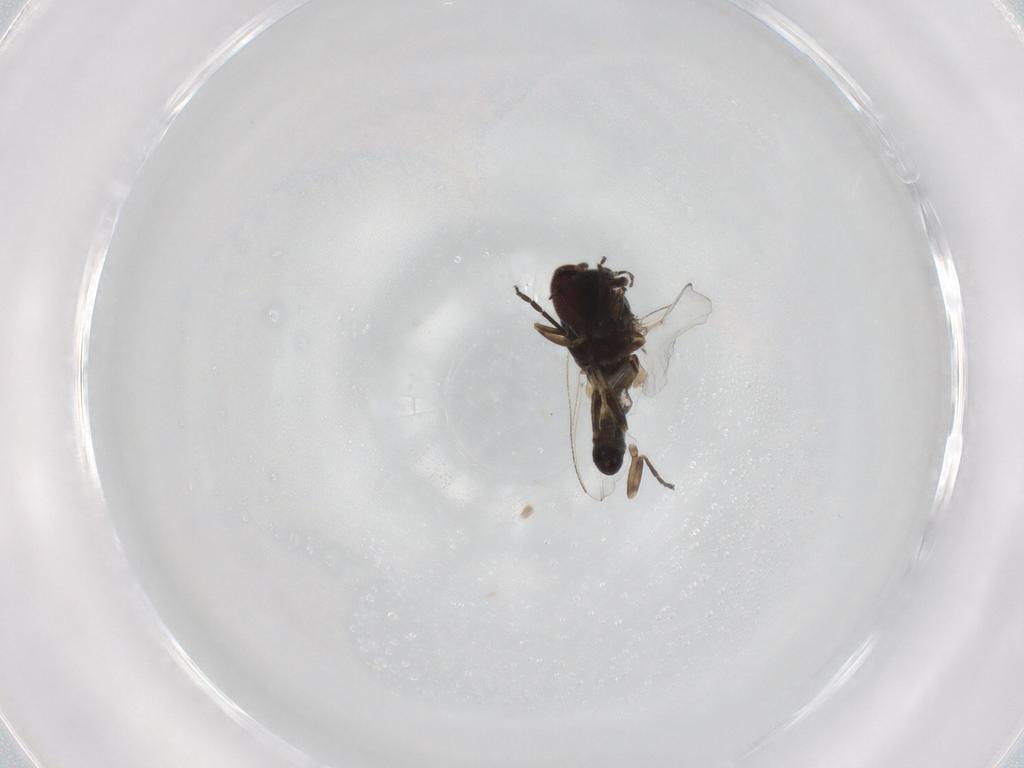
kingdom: Animalia
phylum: Arthropoda
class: Insecta
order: Diptera
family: Simuliidae
